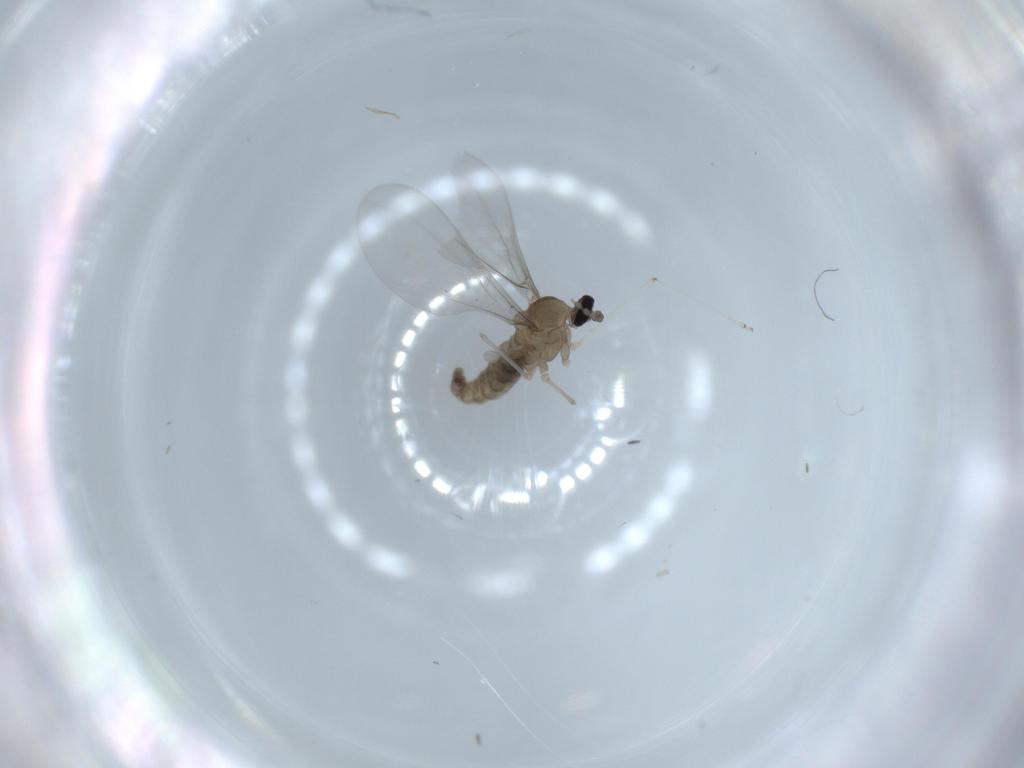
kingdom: Animalia
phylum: Arthropoda
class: Insecta
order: Diptera
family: Cecidomyiidae
